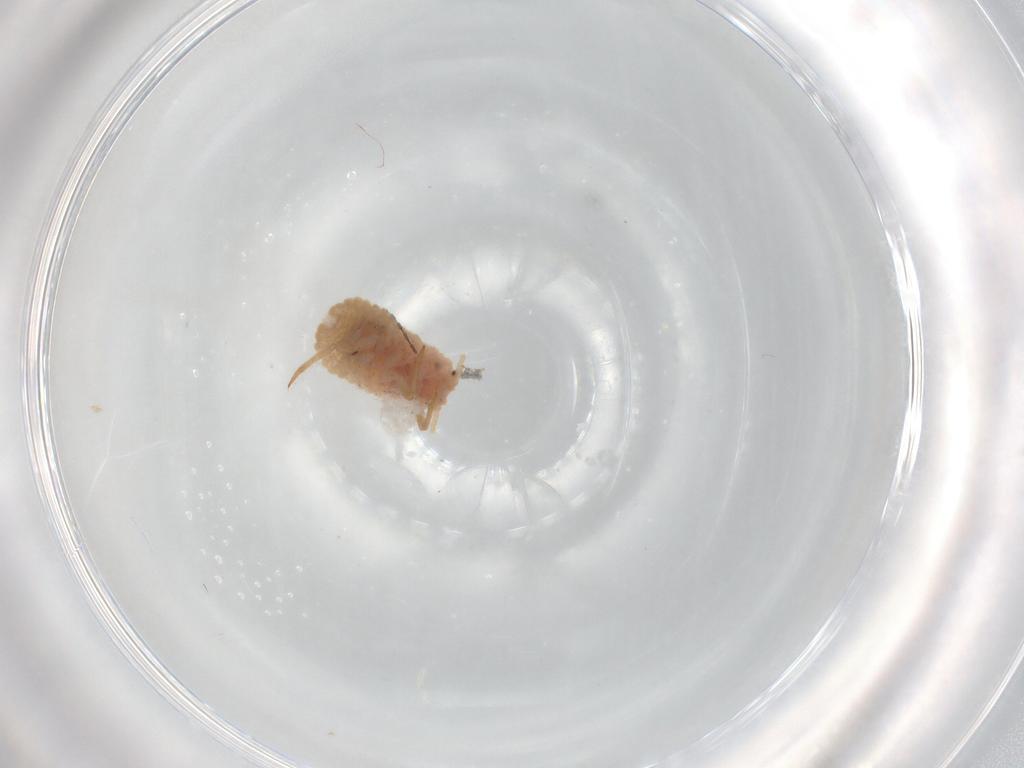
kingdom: Animalia
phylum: Arthropoda
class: Insecta
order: Hemiptera
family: Coccoidea_incertae_sedis
